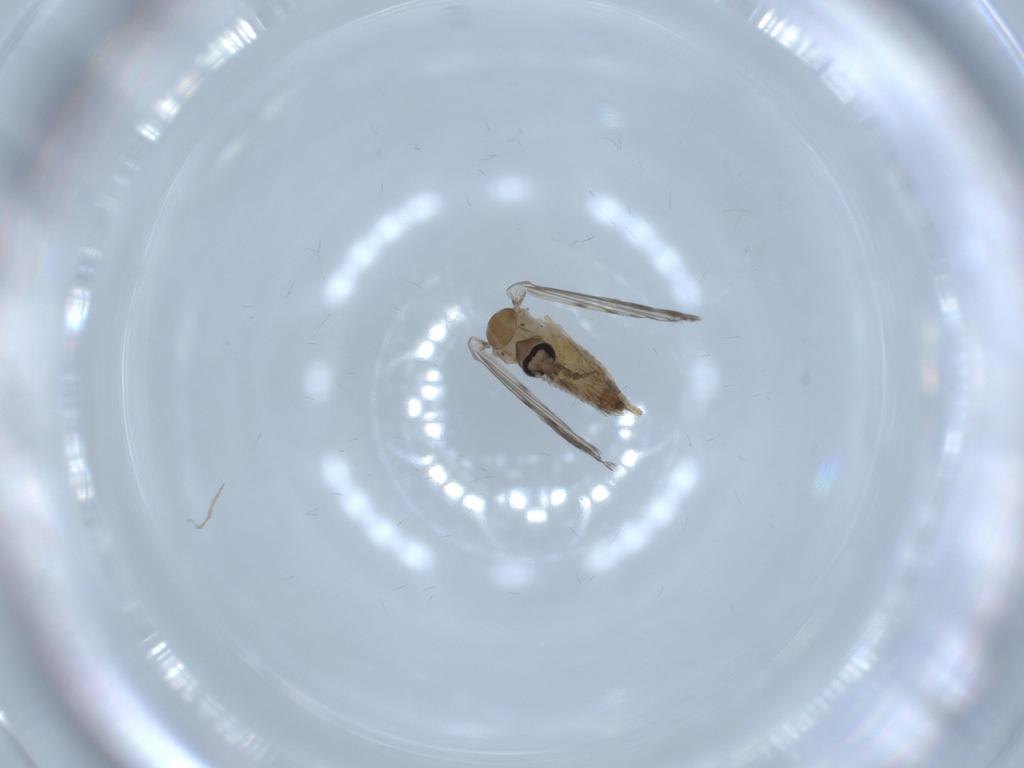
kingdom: Animalia
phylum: Arthropoda
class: Insecta
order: Diptera
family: Psychodidae
